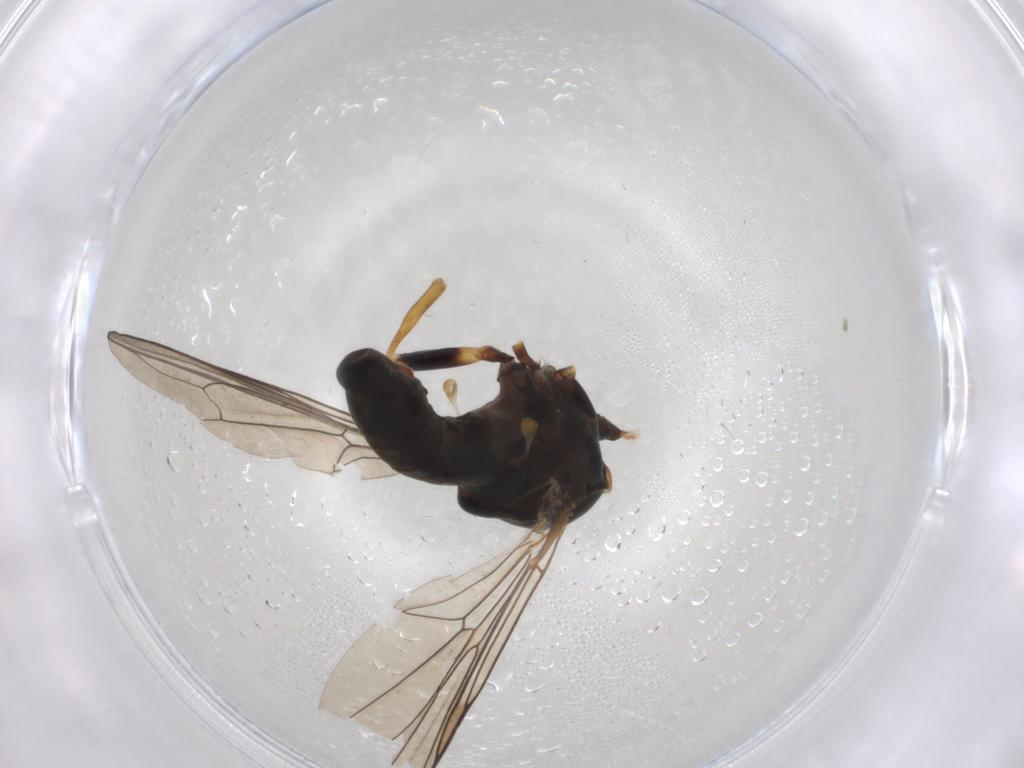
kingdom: Animalia
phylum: Arthropoda
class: Insecta
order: Diptera
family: Pipunculidae
